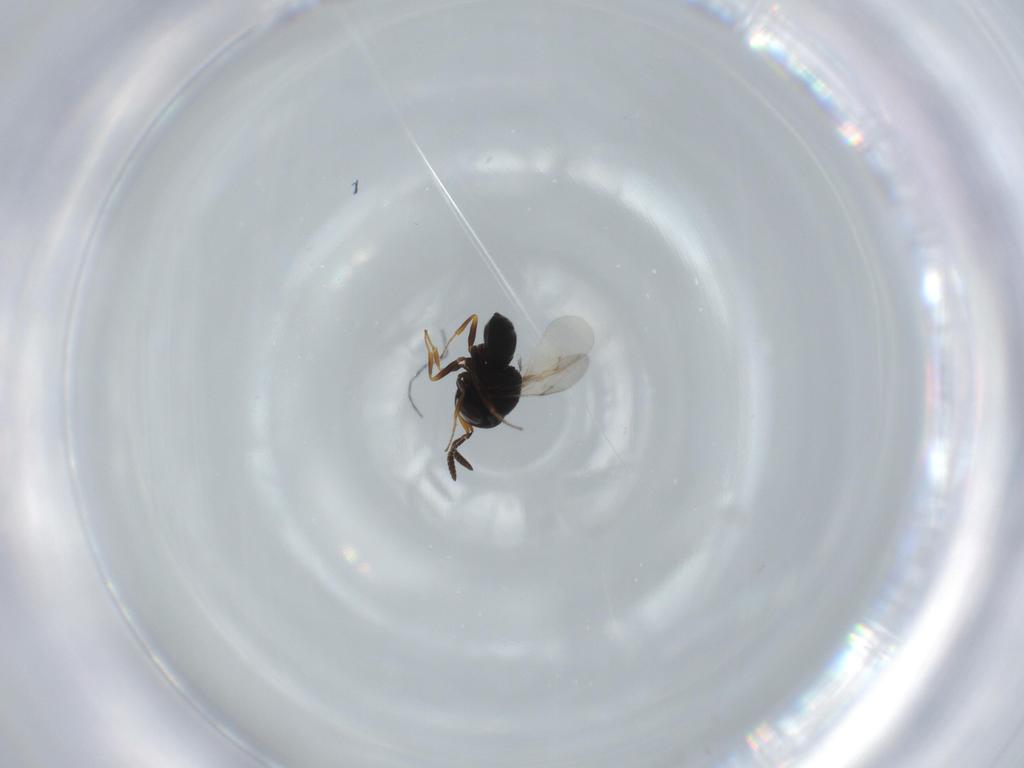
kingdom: Animalia
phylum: Arthropoda
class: Insecta
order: Hymenoptera
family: Scelionidae
